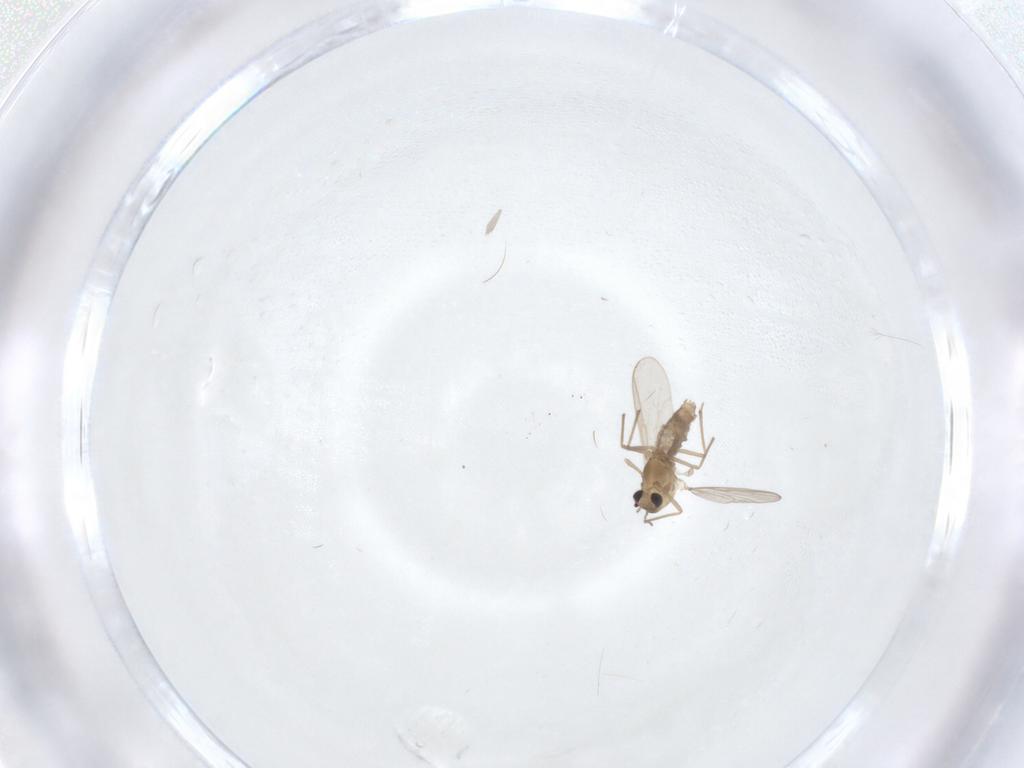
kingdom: Animalia
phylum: Arthropoda
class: Insecta
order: Diptera
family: Chironomidae
